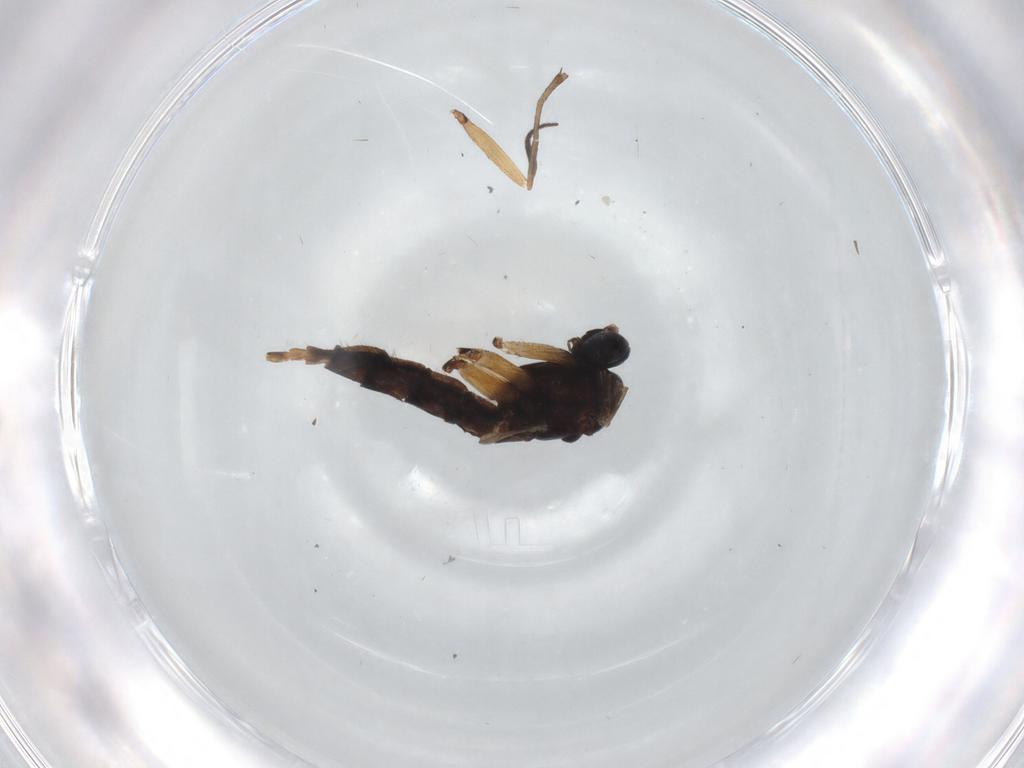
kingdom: Animalia
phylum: Arthropoda
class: Insecta
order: Diptera
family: Sciaridae
